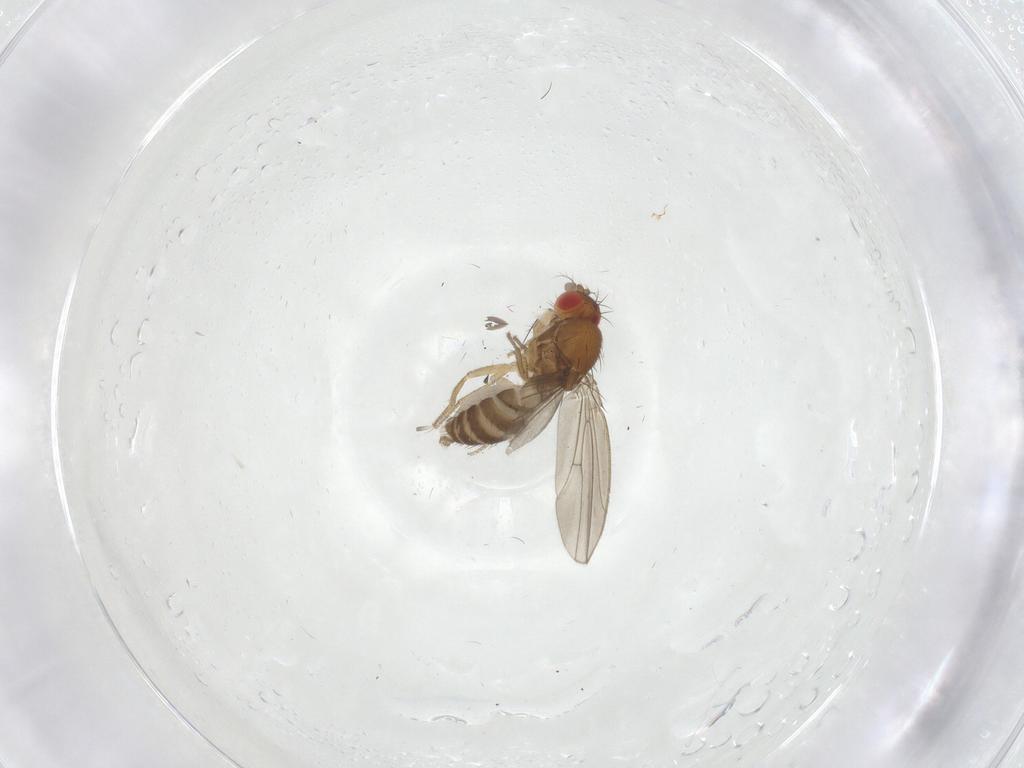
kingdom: Animalia
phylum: Arthropoda
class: Insecta
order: Diptera
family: Drosophilidae
